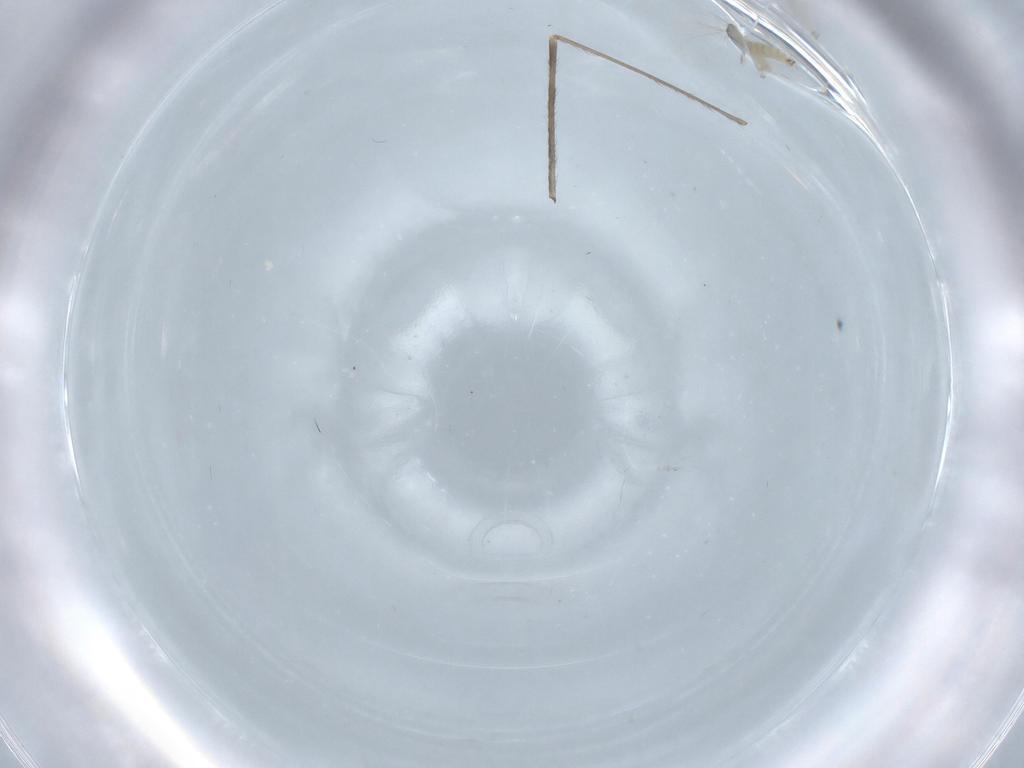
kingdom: Animalia
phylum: Arthropoda
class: Insecta
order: Diptera
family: Cecidomyiidae
